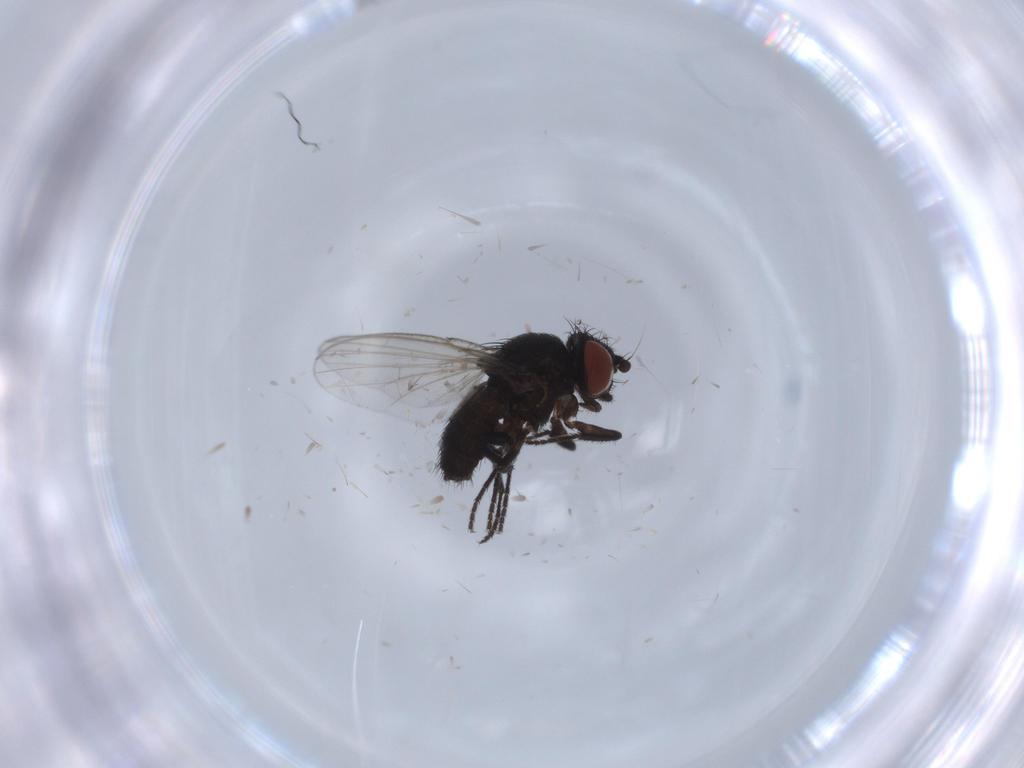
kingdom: Animalia
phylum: Arthropoda
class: Insecta
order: Diptera
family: Milichiidae
